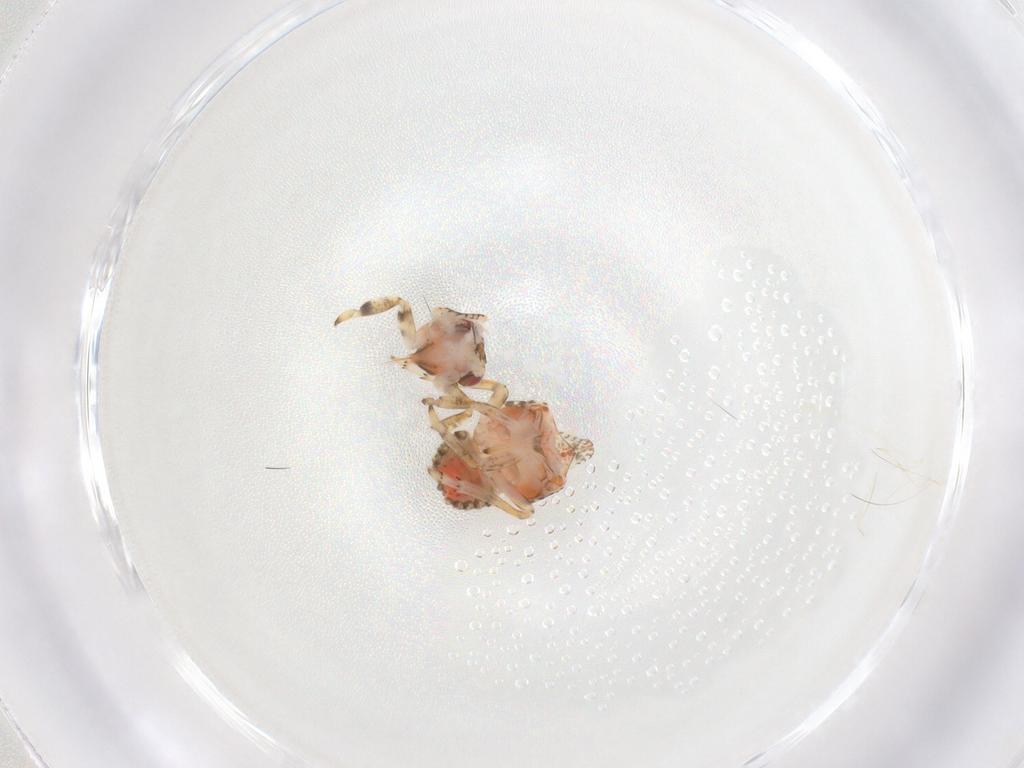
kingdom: Animalia
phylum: Arthropoda
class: Insecta
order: Hemiptera
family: Issidae
